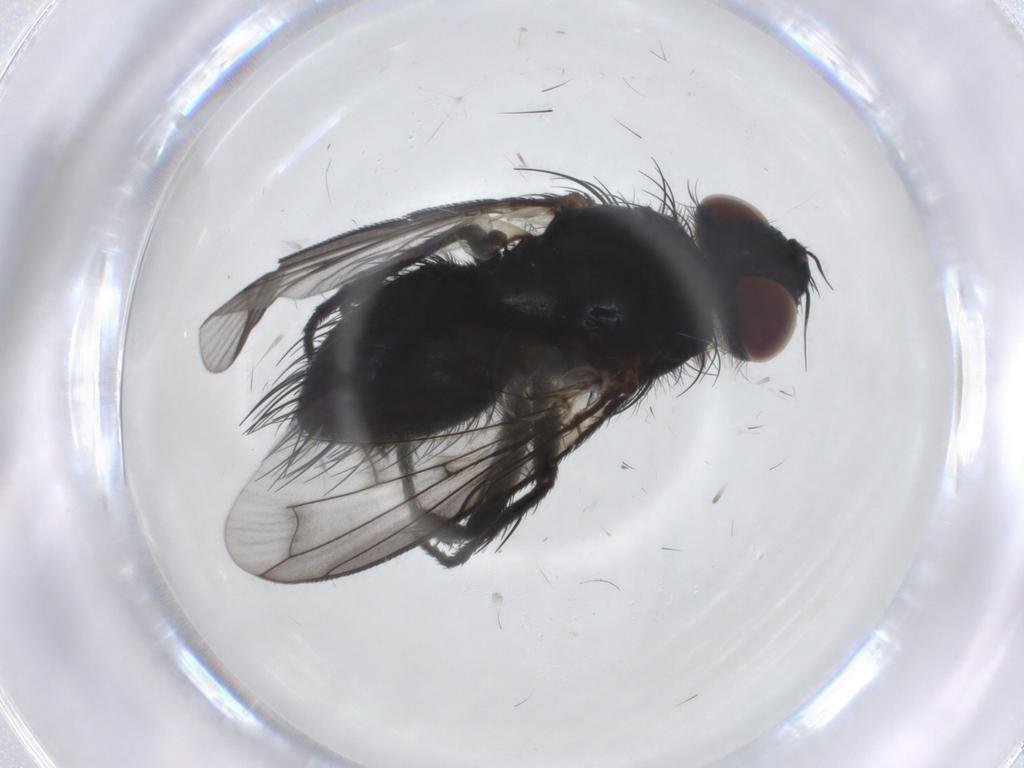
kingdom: Animalia
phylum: Arthropoda
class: Insecta
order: Diptera
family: Tachinidae
